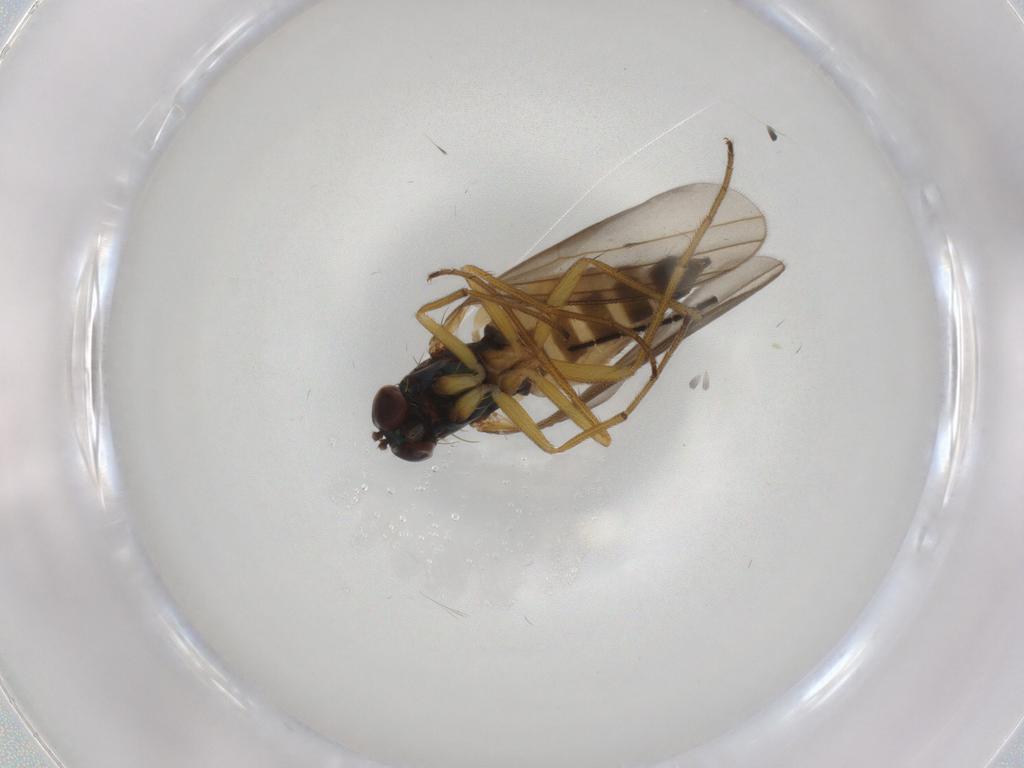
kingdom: Animalia
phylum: Arthropoda
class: Insecta
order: Diptera
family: Dolichopodidae
